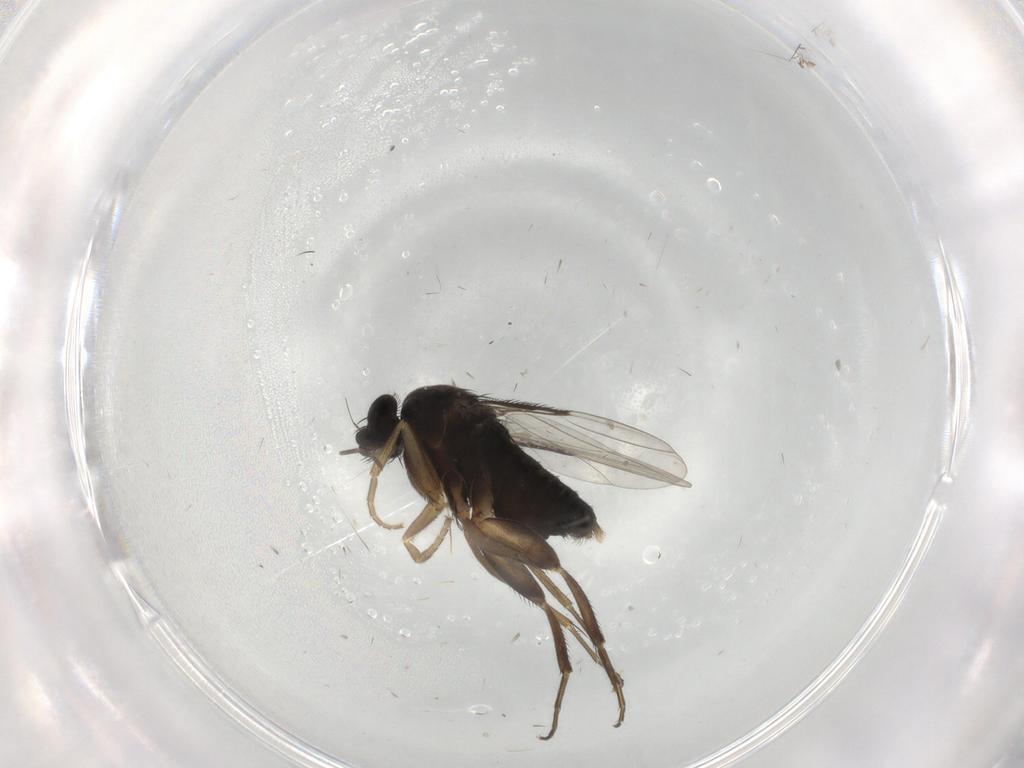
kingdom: Animalia
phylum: Arthropoda
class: Insecta
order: Diptera
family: Phoridae
